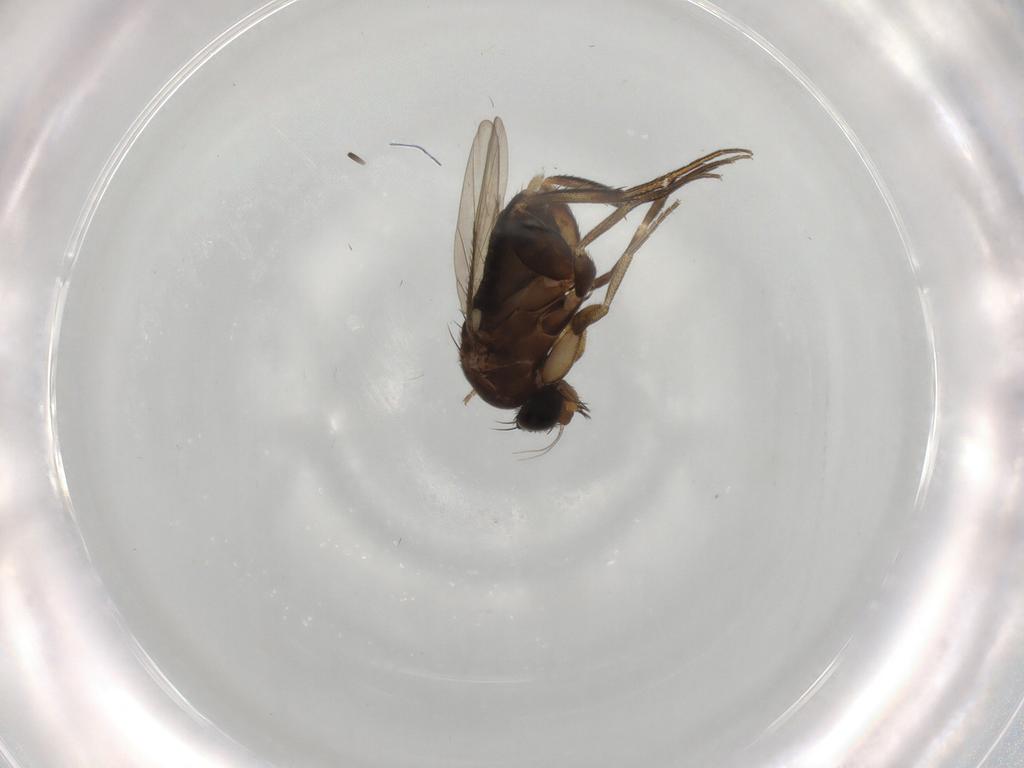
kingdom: Animalia
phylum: Arthropoda
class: Insecta
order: Diptera
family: Phoridae
